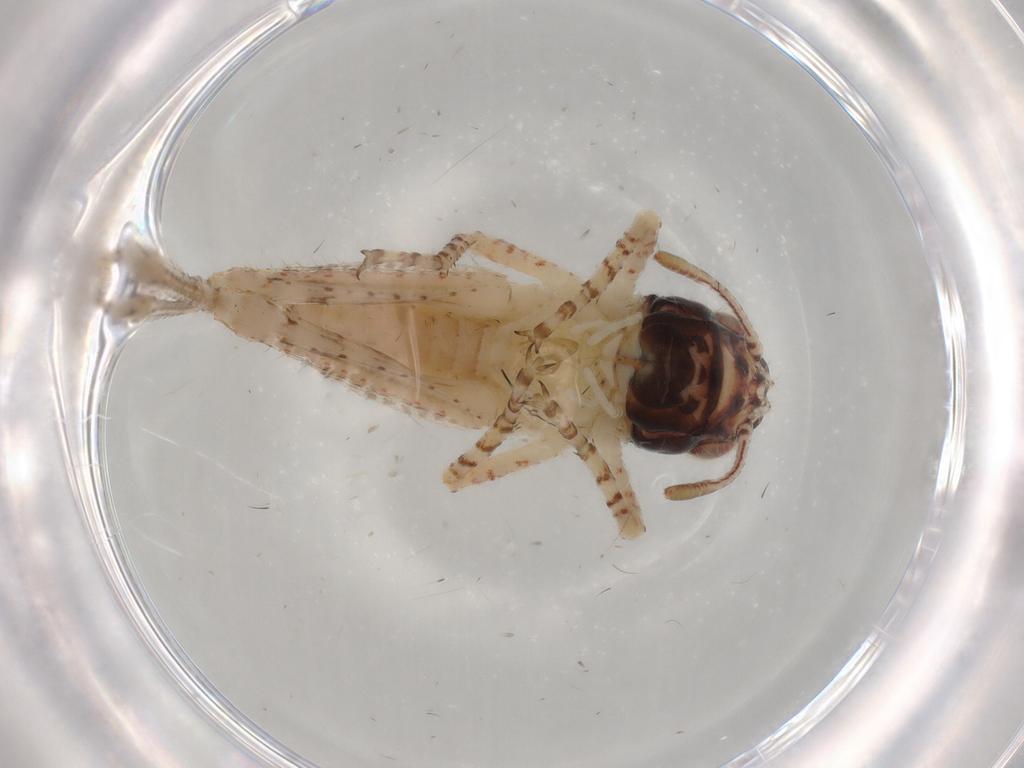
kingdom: Animalia
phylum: Arthropoda
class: Insecta
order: Orthoptera
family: Acrididae
